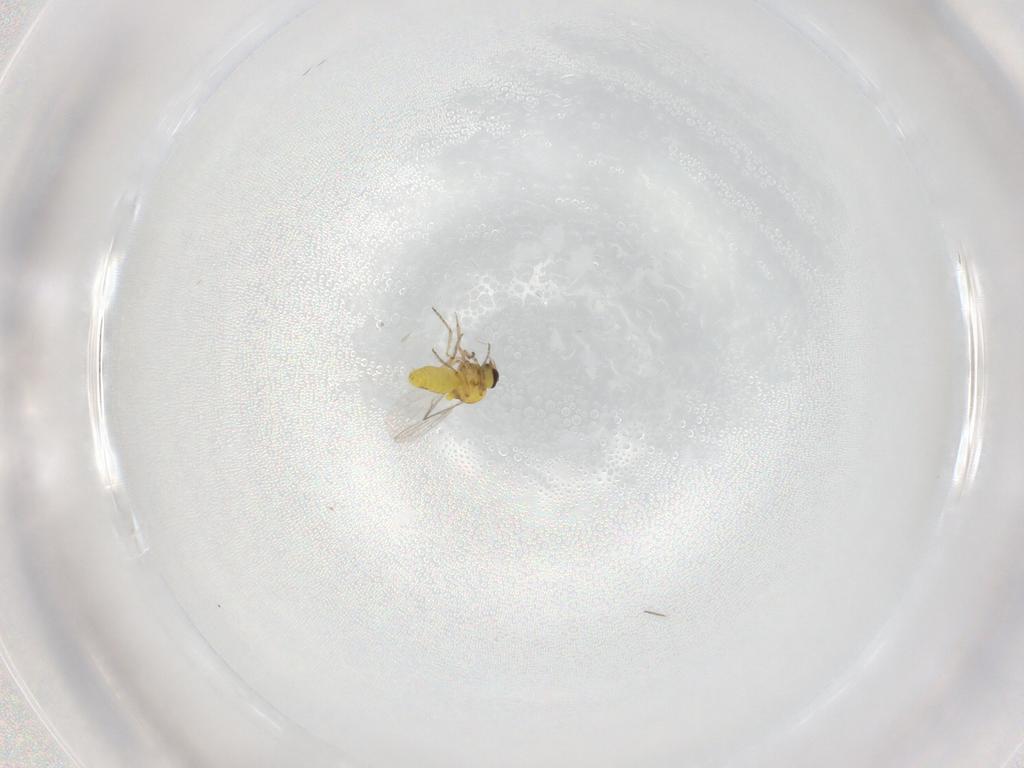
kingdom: Animalia
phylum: Arthropoda
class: Insecta
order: Diptera
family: Ceratopogonidae
